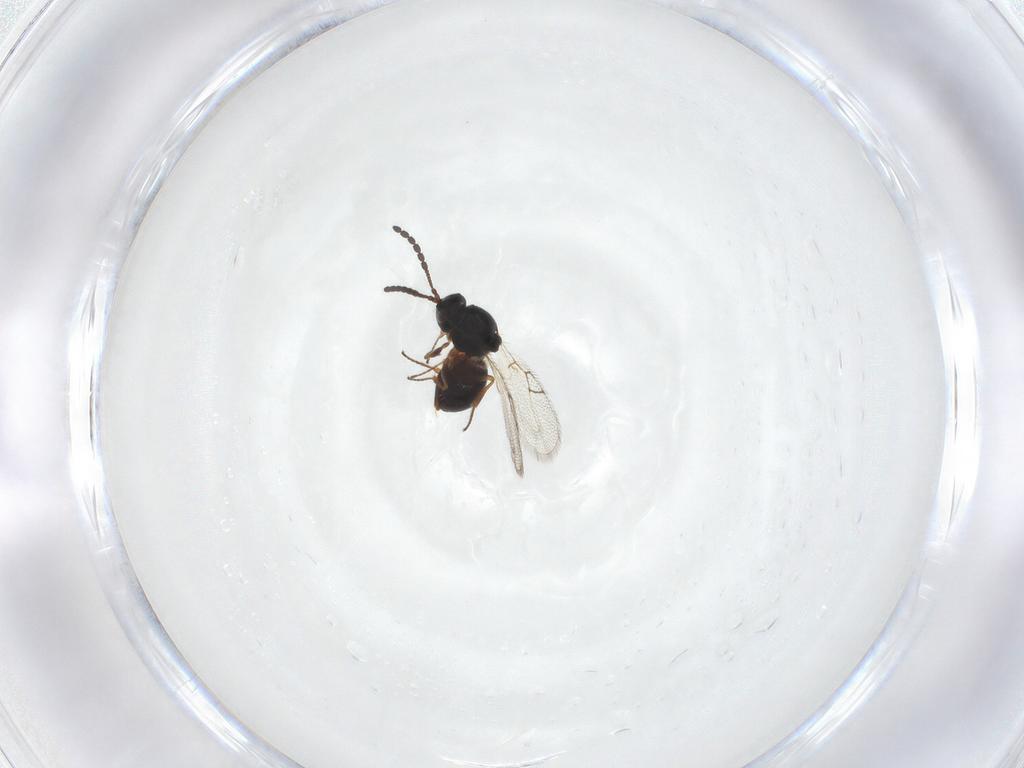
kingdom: Animalia
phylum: Arthropoda
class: Insecta
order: Hymenoptera
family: Figitidae
